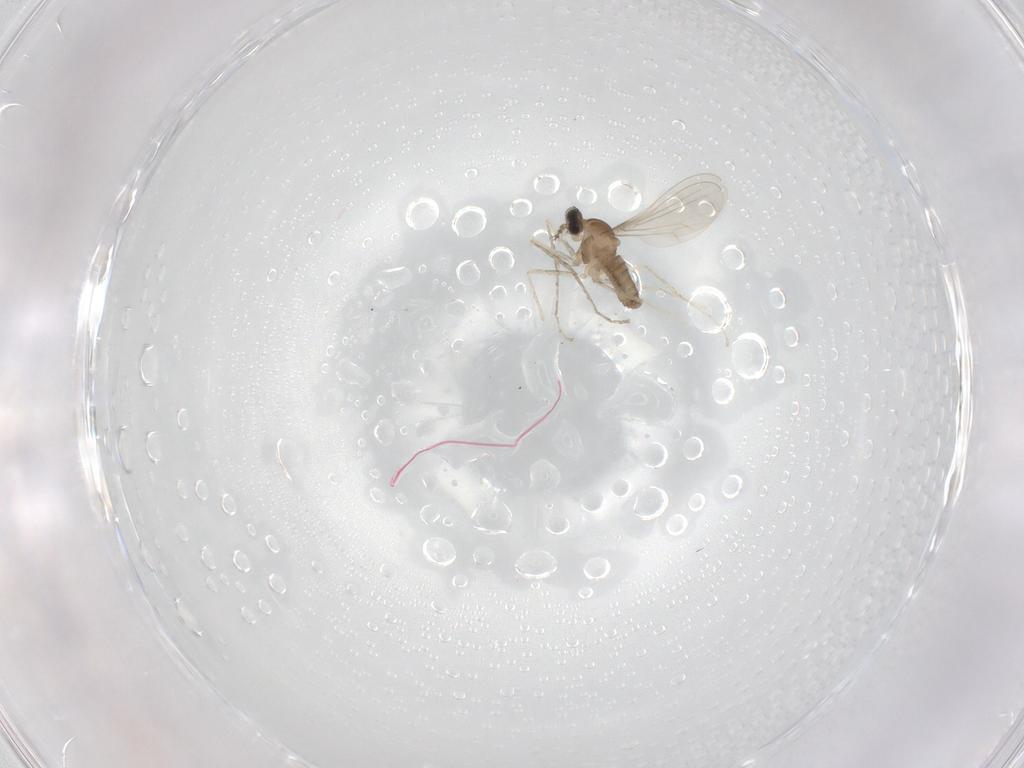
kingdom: Animalia
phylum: Arthropoda
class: Insecta
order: Diptera
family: Cecidomyiidae
